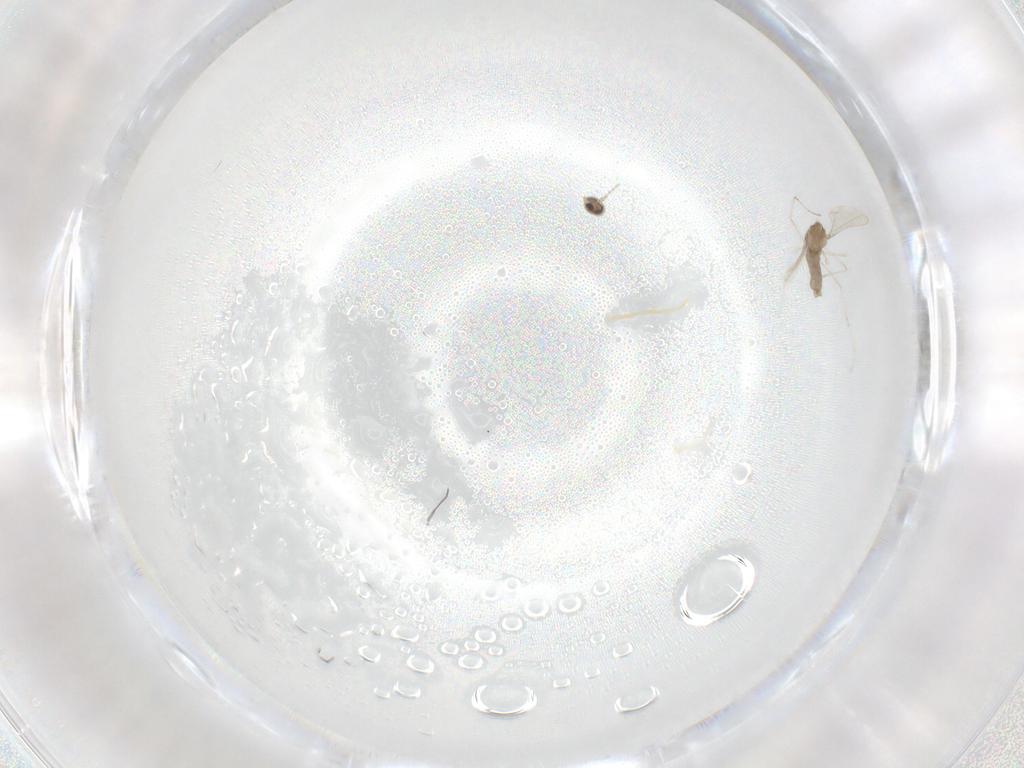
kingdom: Animalia
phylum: Arthropoda
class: Insecta
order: Diptera
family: Cecidomyiidae
